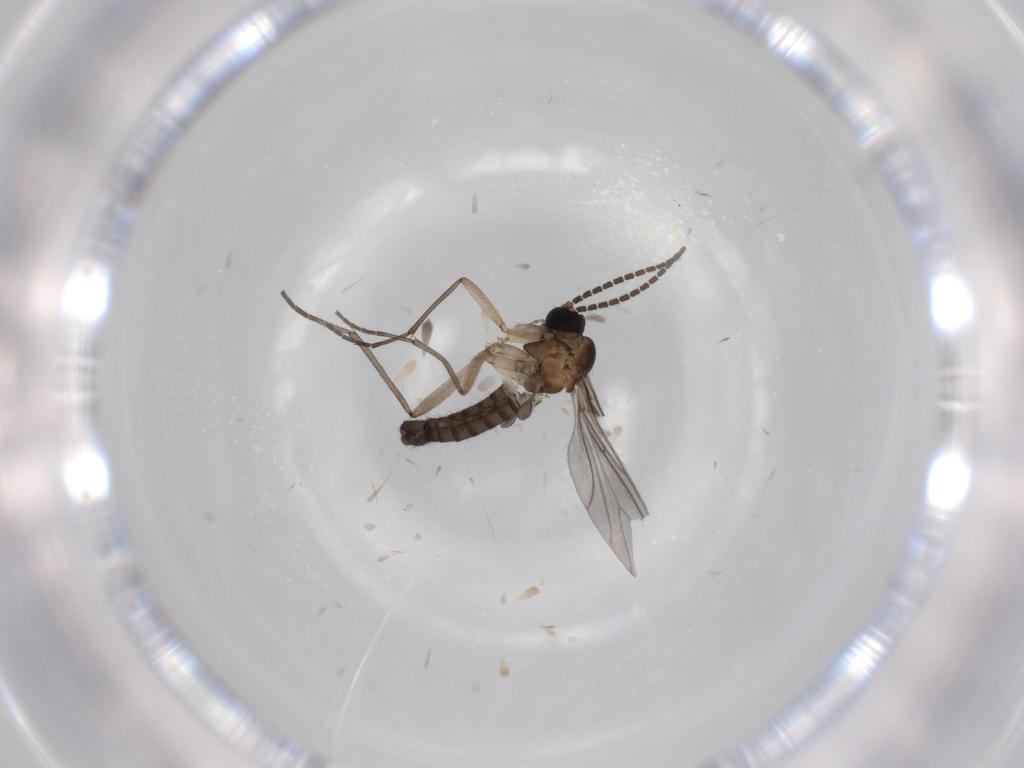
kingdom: Animalia
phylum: Arthropoda
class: Insecta
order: Diptera
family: Sciaridae
